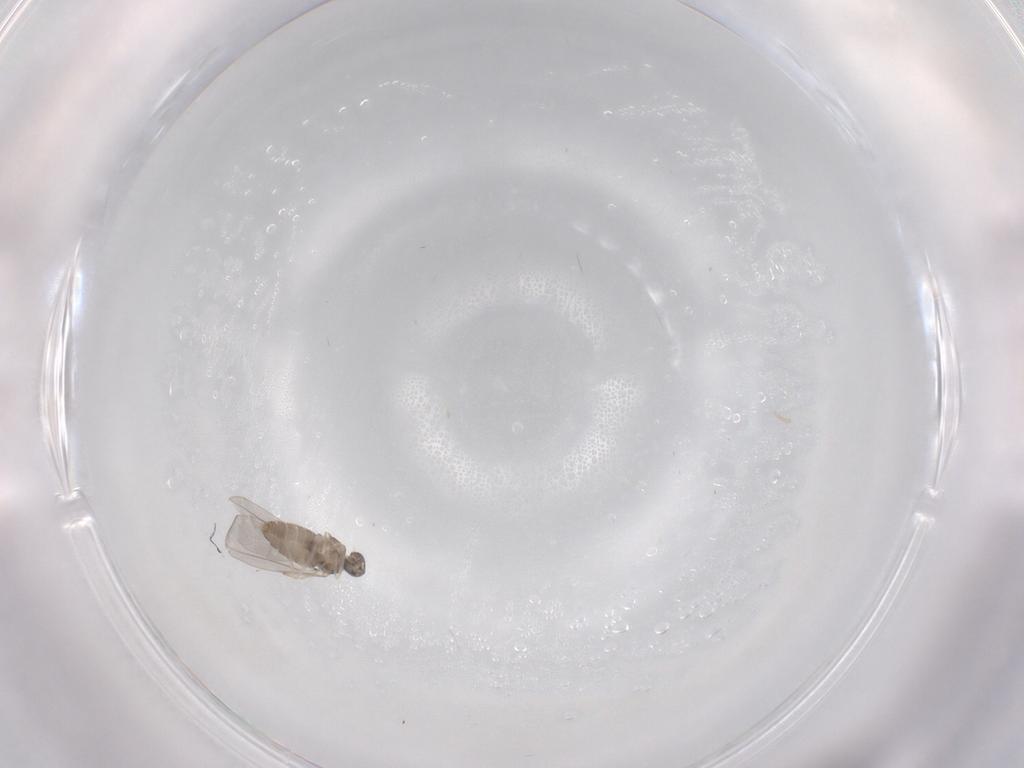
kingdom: Animalia
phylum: Arthropoda
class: Insecta
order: Diptera
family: Cecidomyiidae
